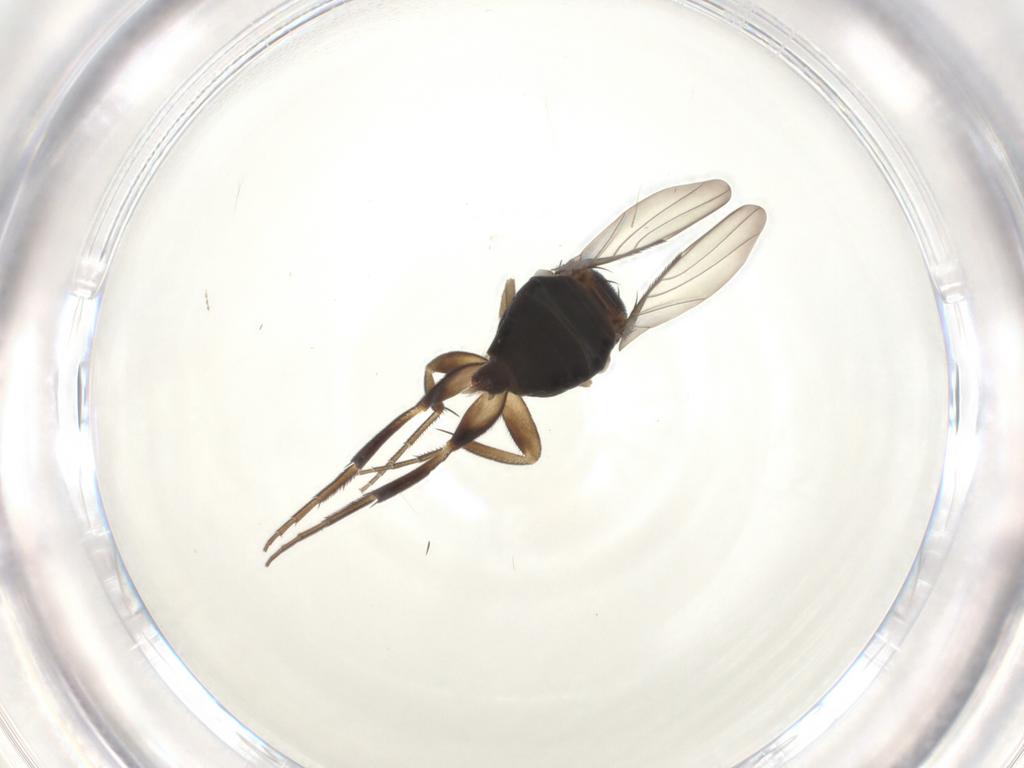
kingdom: Animalia
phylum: Arthropoda
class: Insecta
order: Diptera
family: Phoridae
